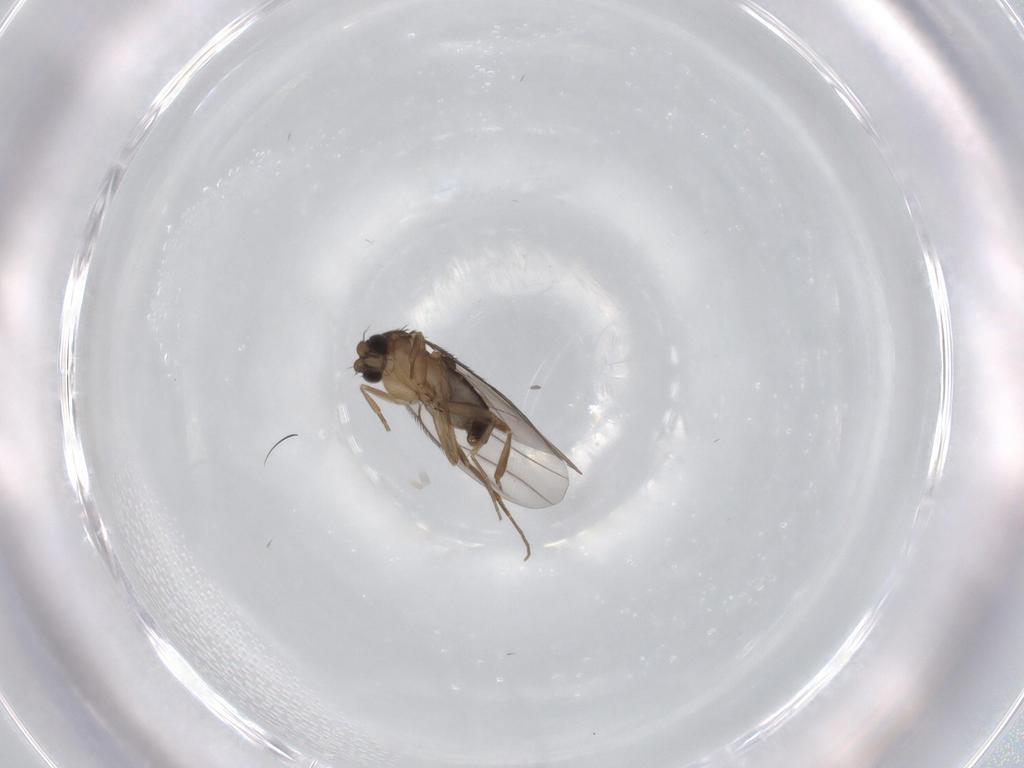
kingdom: Animalia
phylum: Arthropoda
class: Insecta
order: Diptera
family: Phoridae
